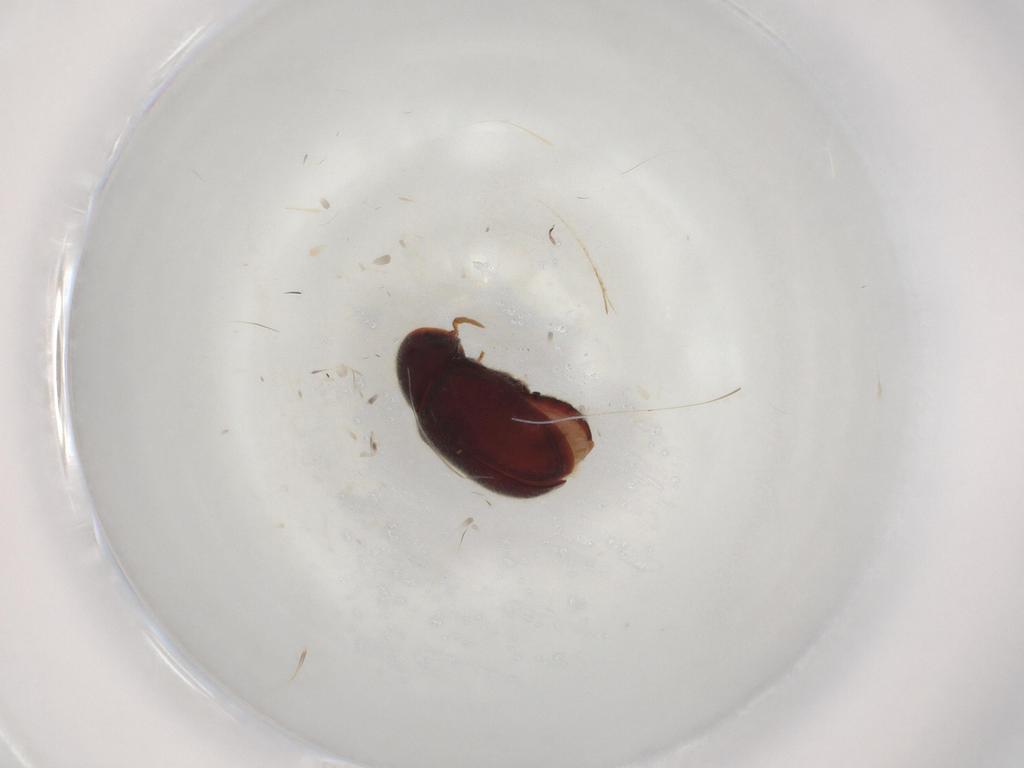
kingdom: Animalia
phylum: Arthropoda
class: Insecta
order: Coleoptera
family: Ptinidae
